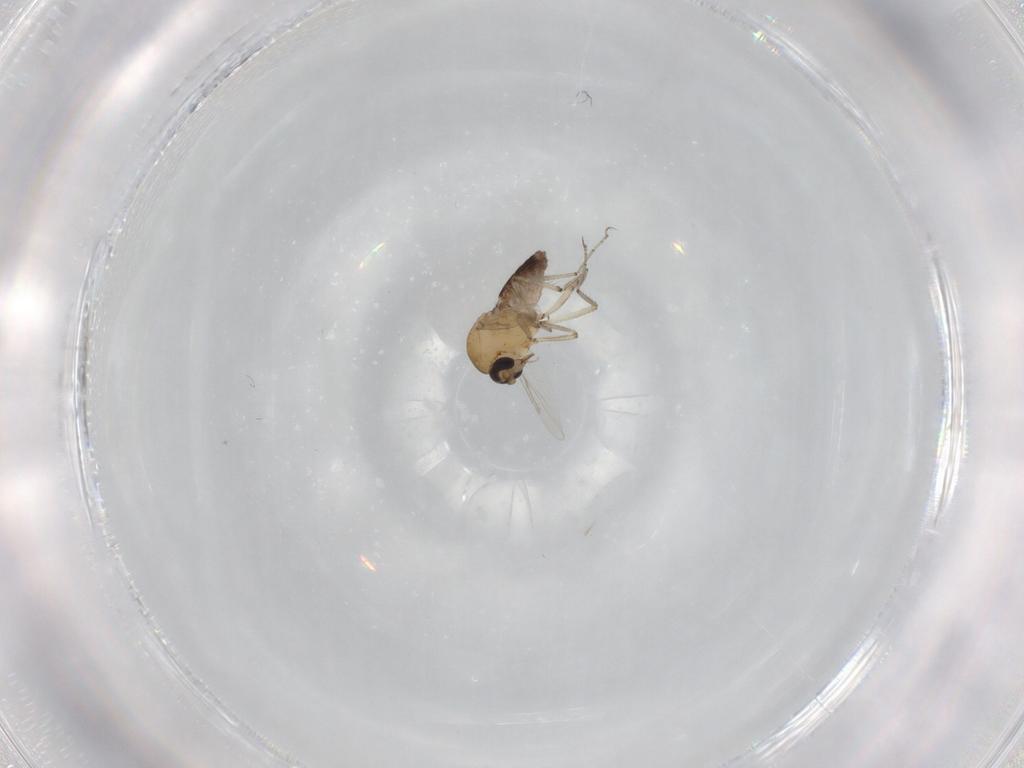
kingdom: Animalia
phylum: Arthropoda
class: Insecta
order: Diptera
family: Ceratopogonidae
